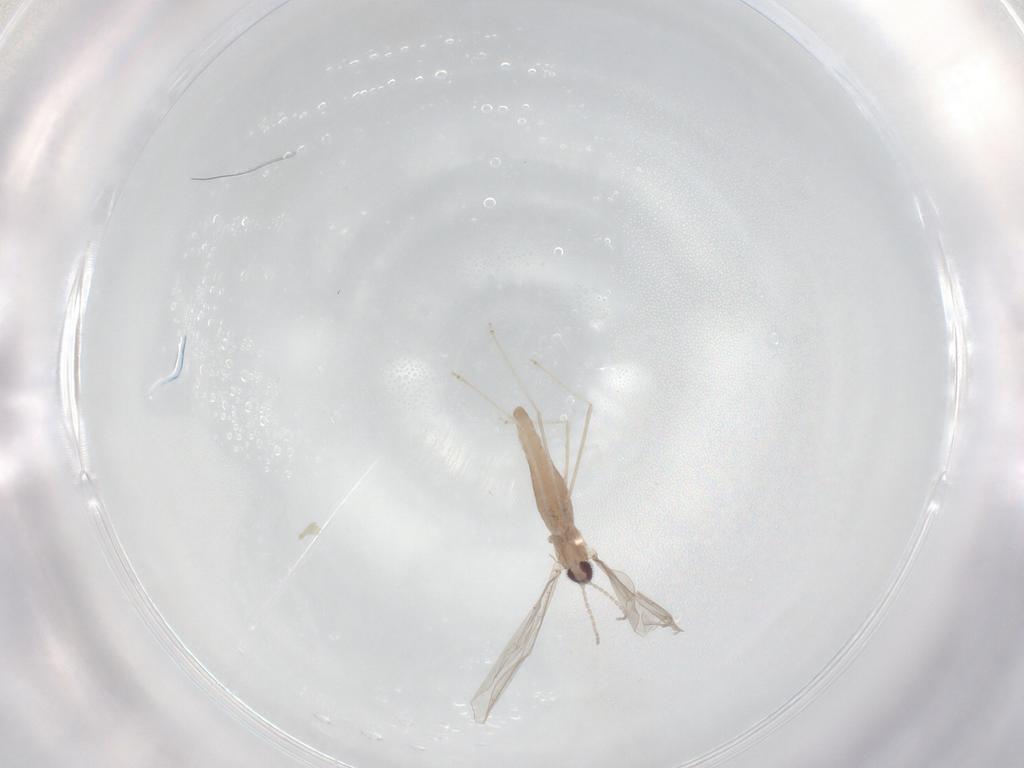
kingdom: Animalia
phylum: Arthropoda
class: Insecta
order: Diptera
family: Cecidomyiidae
